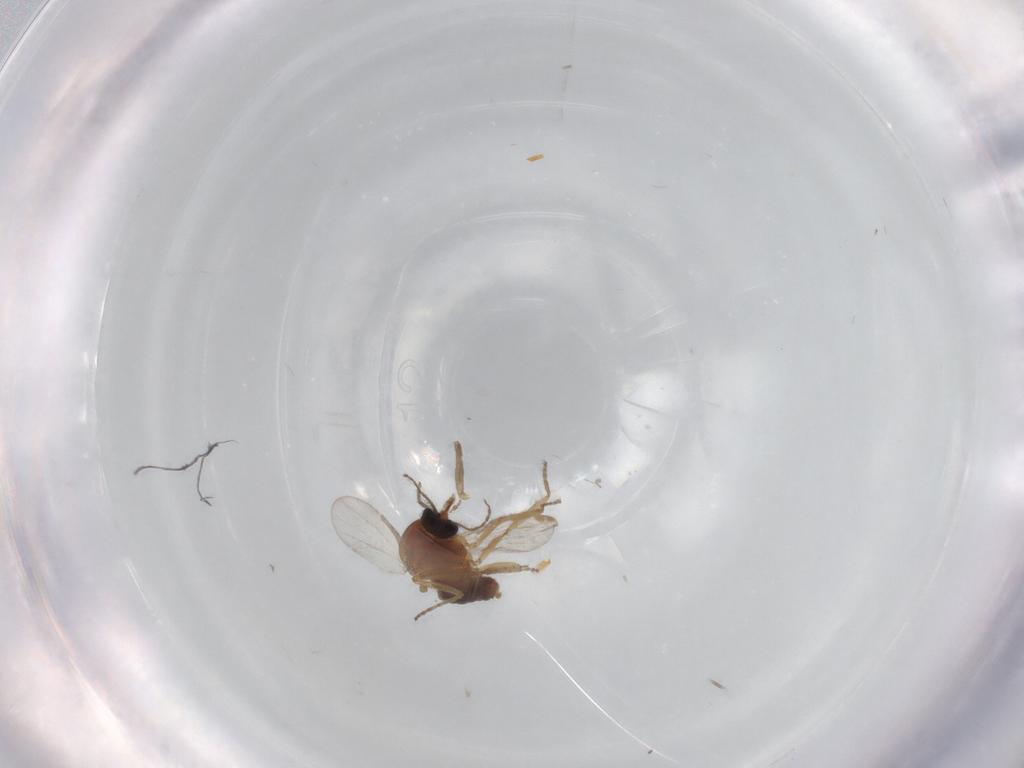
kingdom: Animalia
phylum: Arthropoda
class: Insecta
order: Diptera
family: Ceratopogonidae
